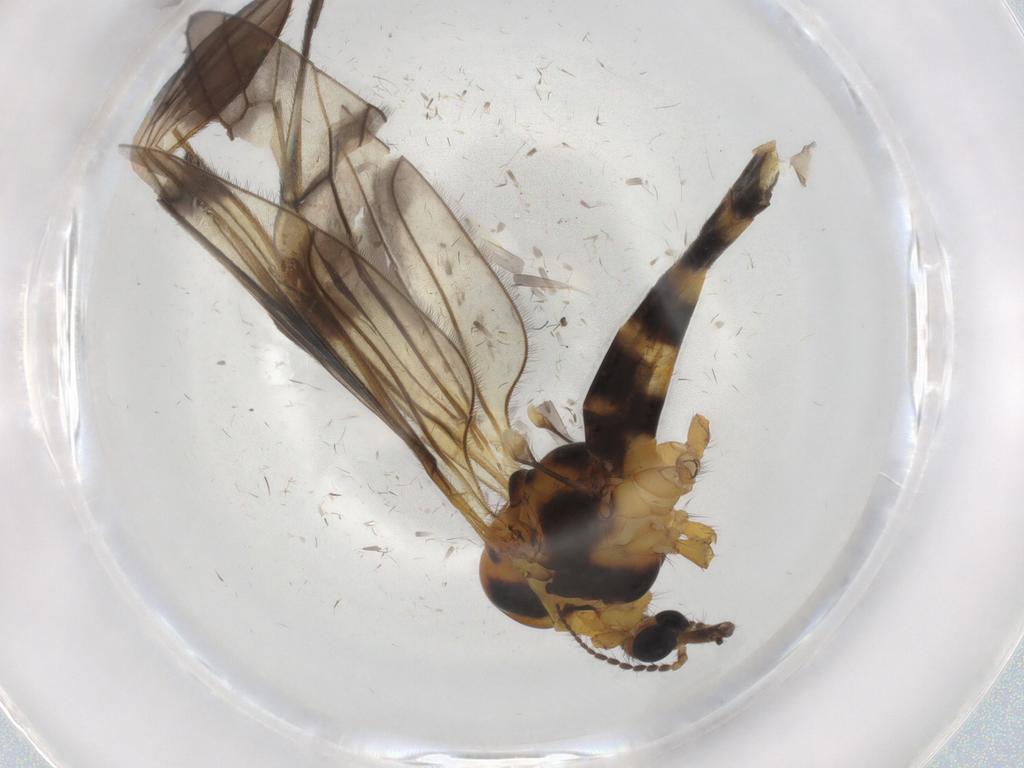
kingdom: Animalia
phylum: Arthropoda
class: Insecta
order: Diptera
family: Limoniidae
